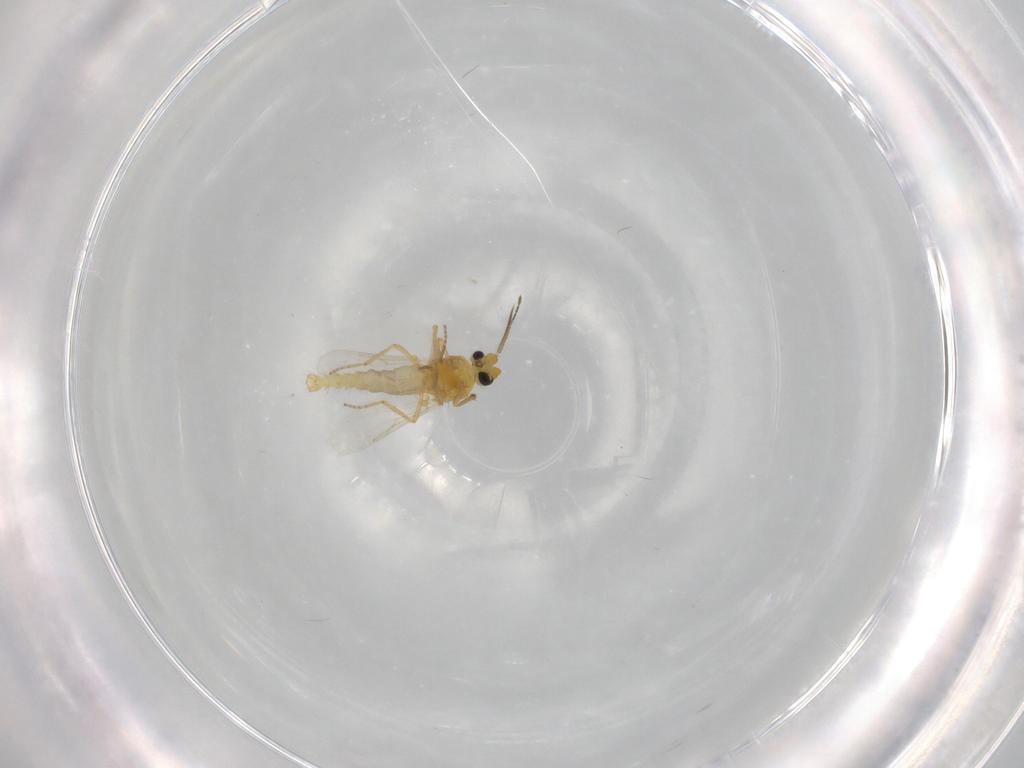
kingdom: Animalia
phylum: Arthropoda
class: Insecta
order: Diptera
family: Ceratopogonidae
